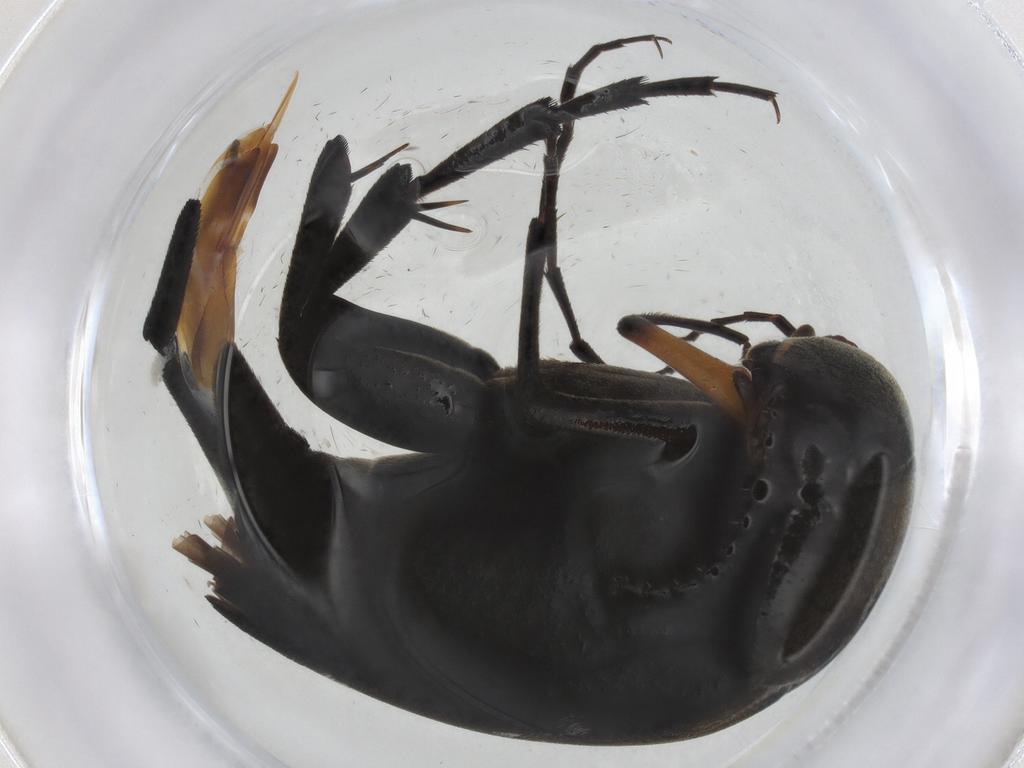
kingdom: Animalia
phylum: Arthropoda
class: Insecta
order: Coleoptera
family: Mordellidae
